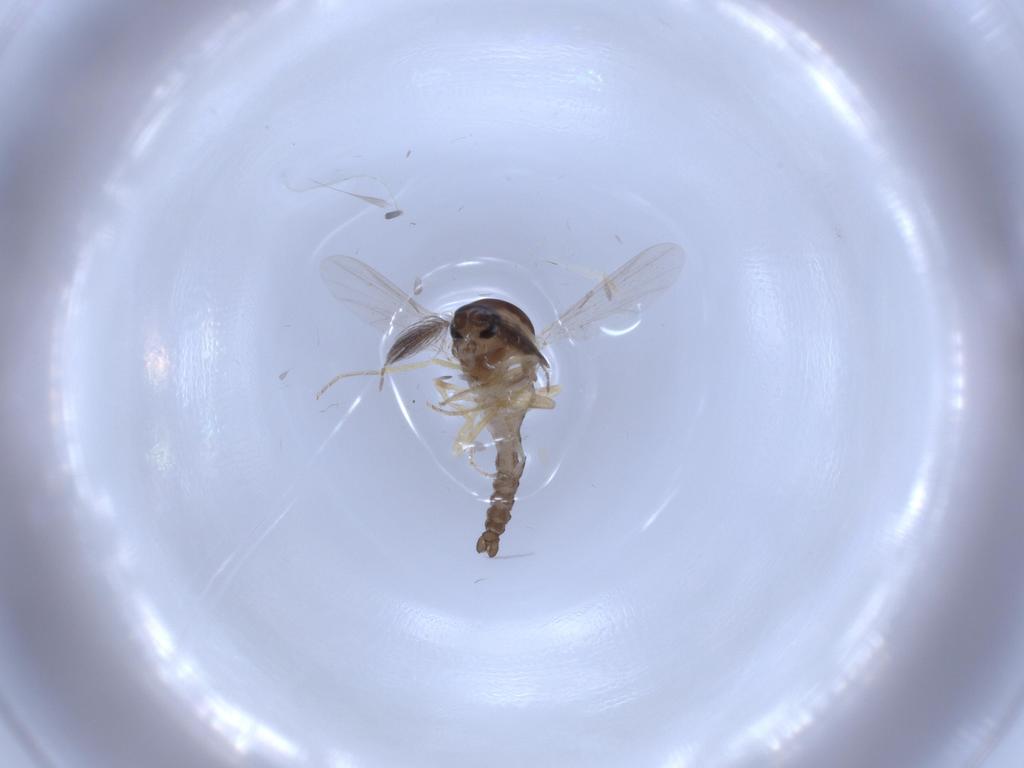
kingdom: Animalia
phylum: Arthropoda
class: Insecta
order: Diptera
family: Ceratopogonidae
